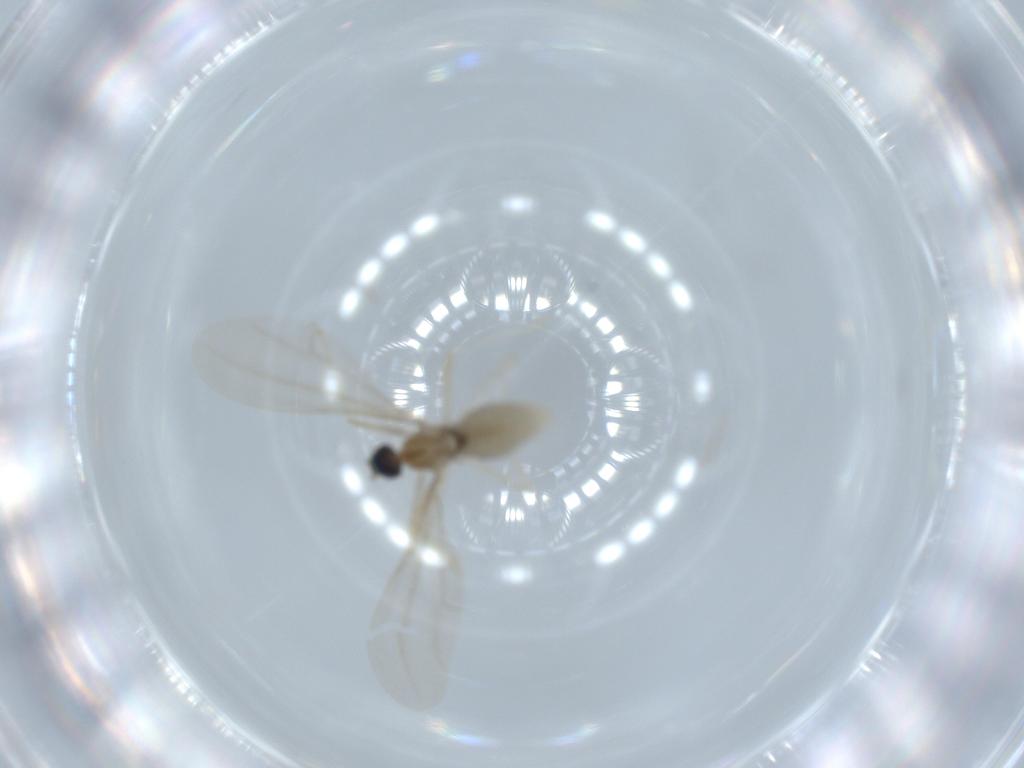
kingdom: Animalia
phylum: Arthropoda
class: Insecta
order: Diptera
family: Cecidomyiidae
